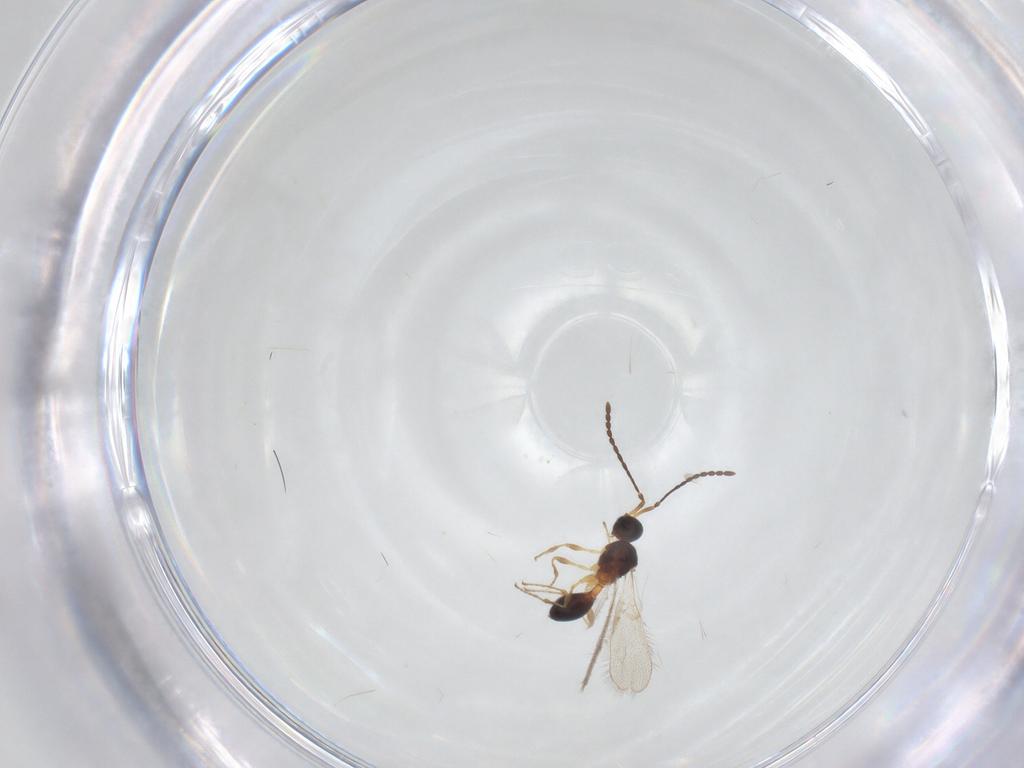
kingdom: Animalia
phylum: Arthropoda
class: Insecta
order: Hymenoptera
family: Diapriidae
